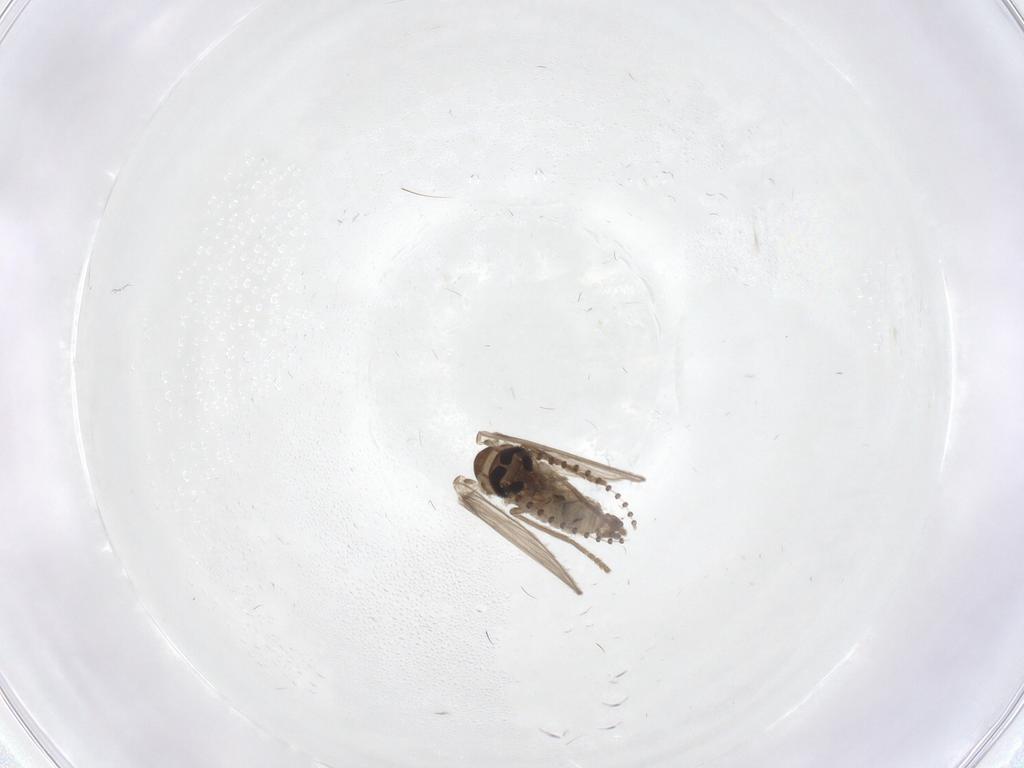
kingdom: Animalia
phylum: Arthropoda
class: Insecta
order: Diptera
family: Psychodidae
